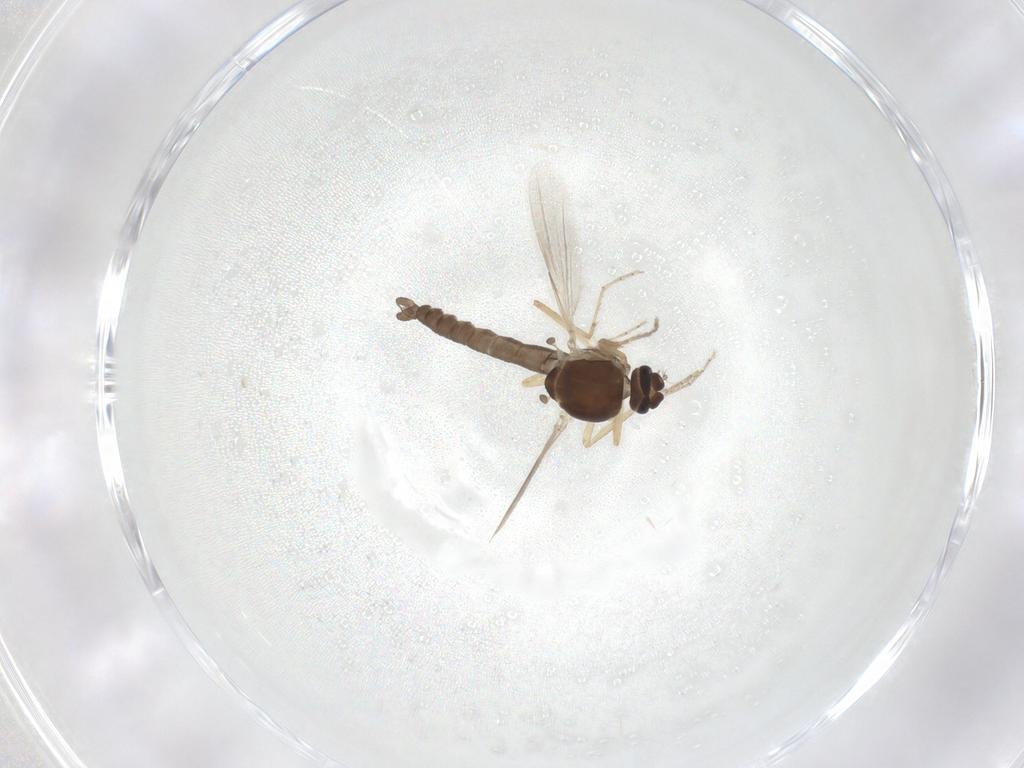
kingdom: Animalia
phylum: Arthropoda
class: Insecta
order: Diptera
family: Ceratopogonidae
